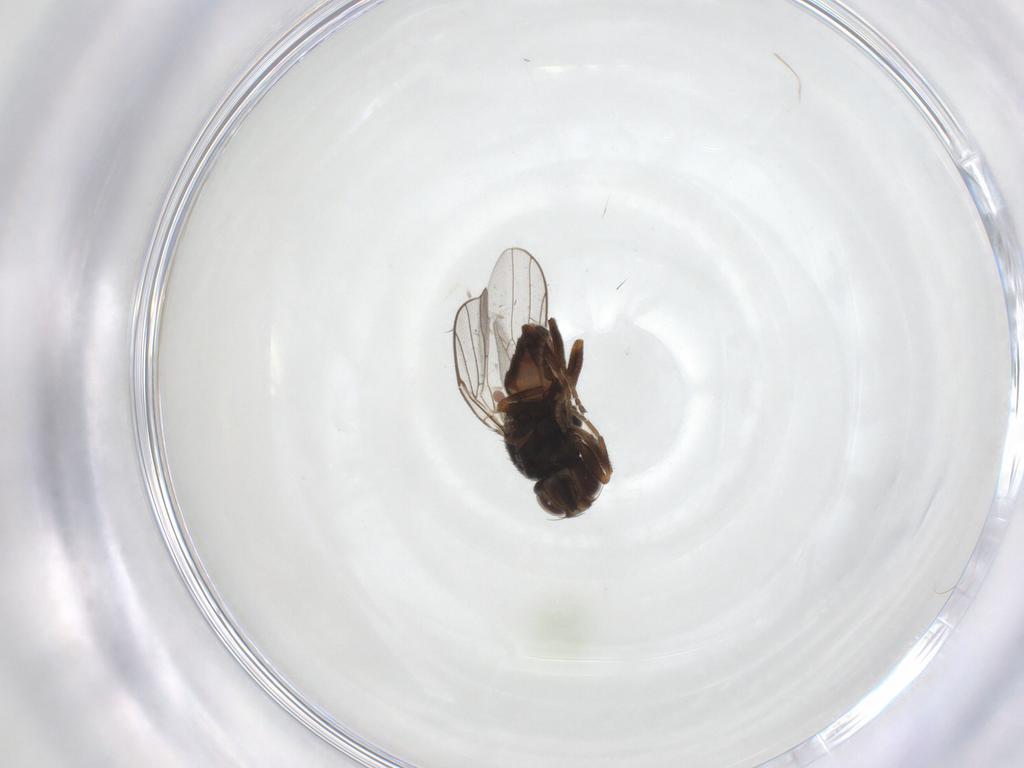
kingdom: Animalia
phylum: Arthropoda
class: Insecta
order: Diptera
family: Chloropidae
